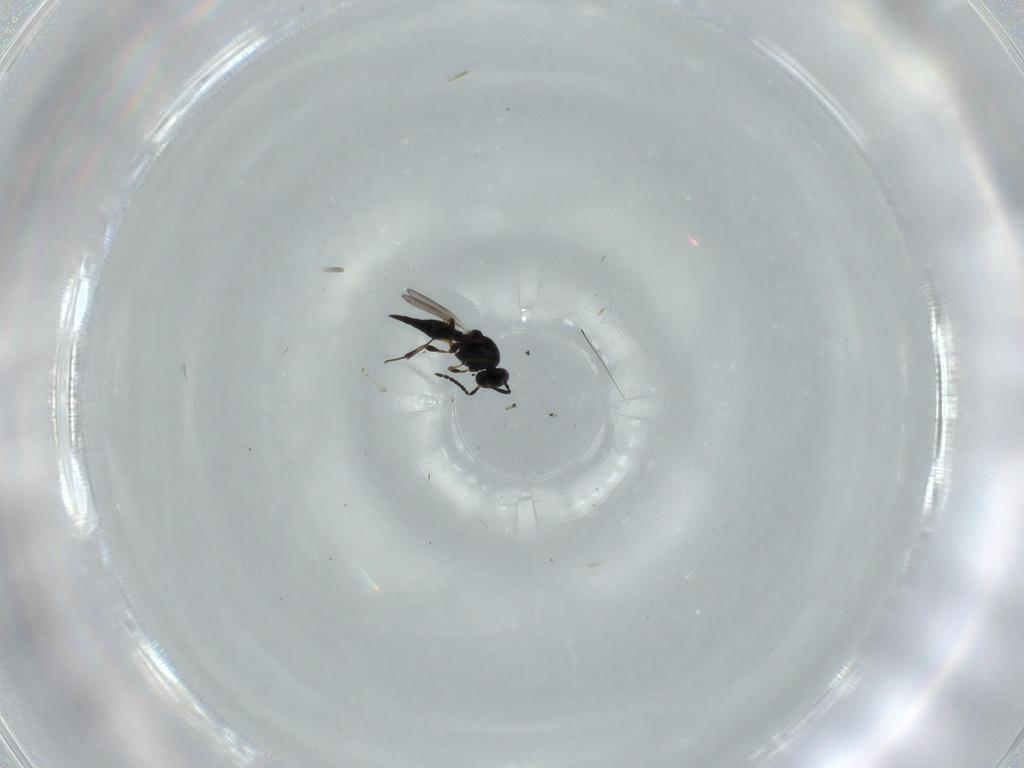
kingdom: Animalia
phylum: Arthropoda
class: Insecta
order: Hymenoptera
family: Platygastridae
